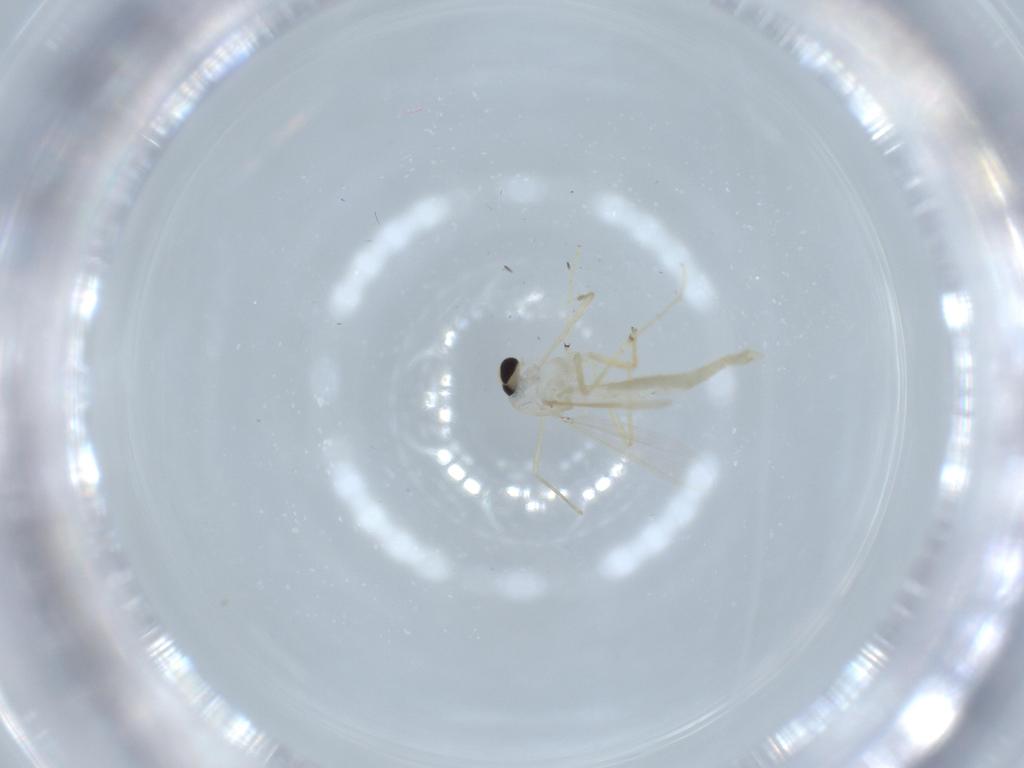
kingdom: Animalia
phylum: Arthropoda
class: Insecta
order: Diptera
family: Chironomidae
